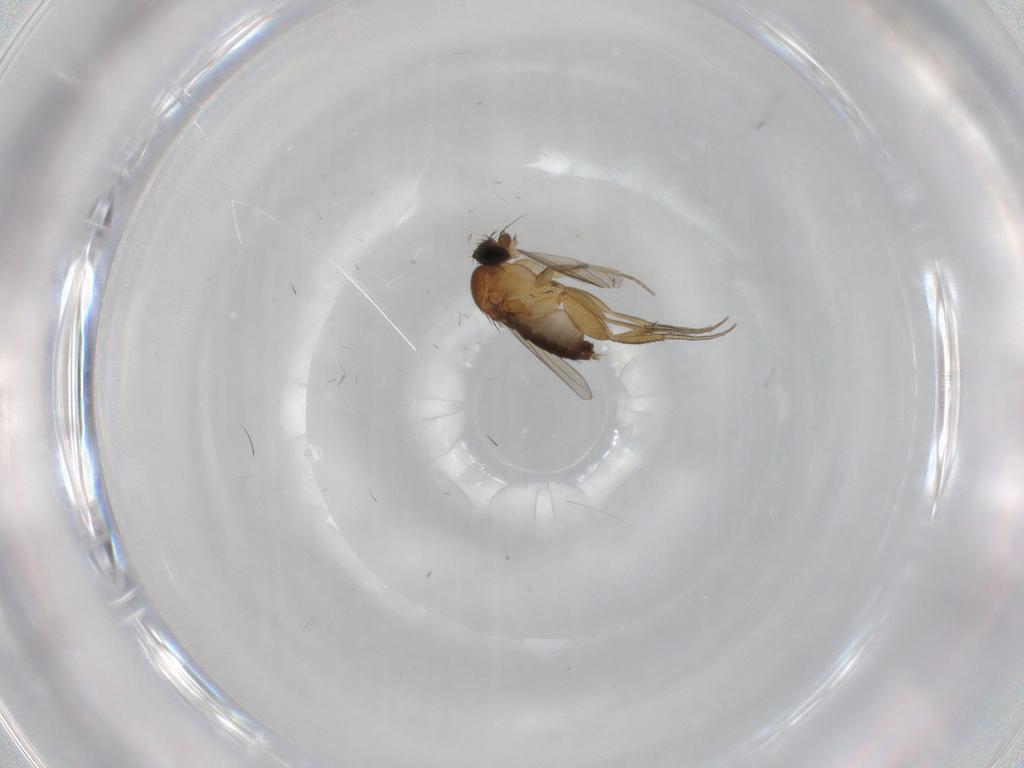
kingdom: Animalia
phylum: Arthropoda
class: Insecta
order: Diptera
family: Phoridae
